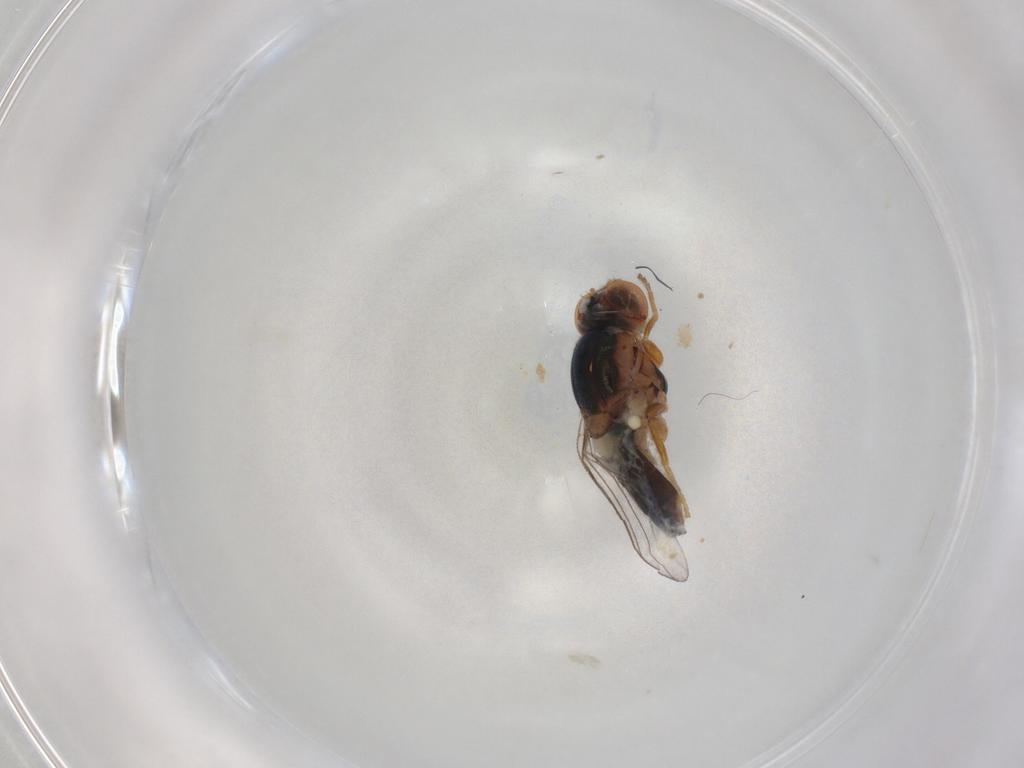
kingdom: Animalia
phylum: Arthropoda
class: Insecta
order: Diptera
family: Chloropidae
